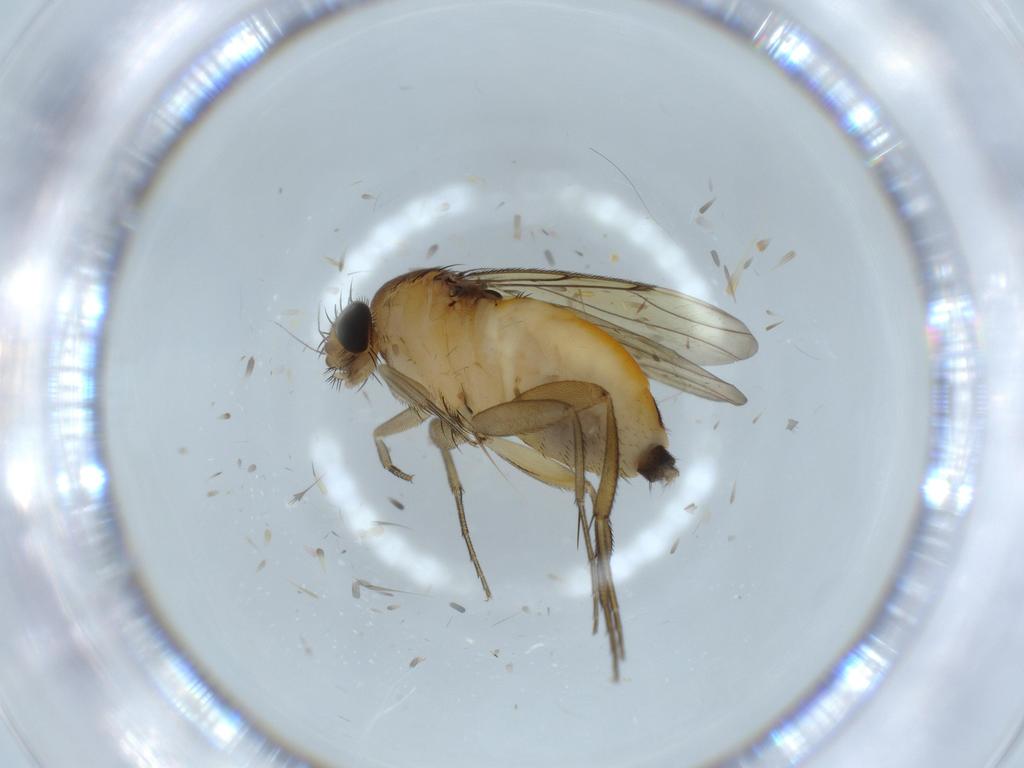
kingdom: Animalia
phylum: Arthropoda
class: Insecta
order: Diptera
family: Phoridae
